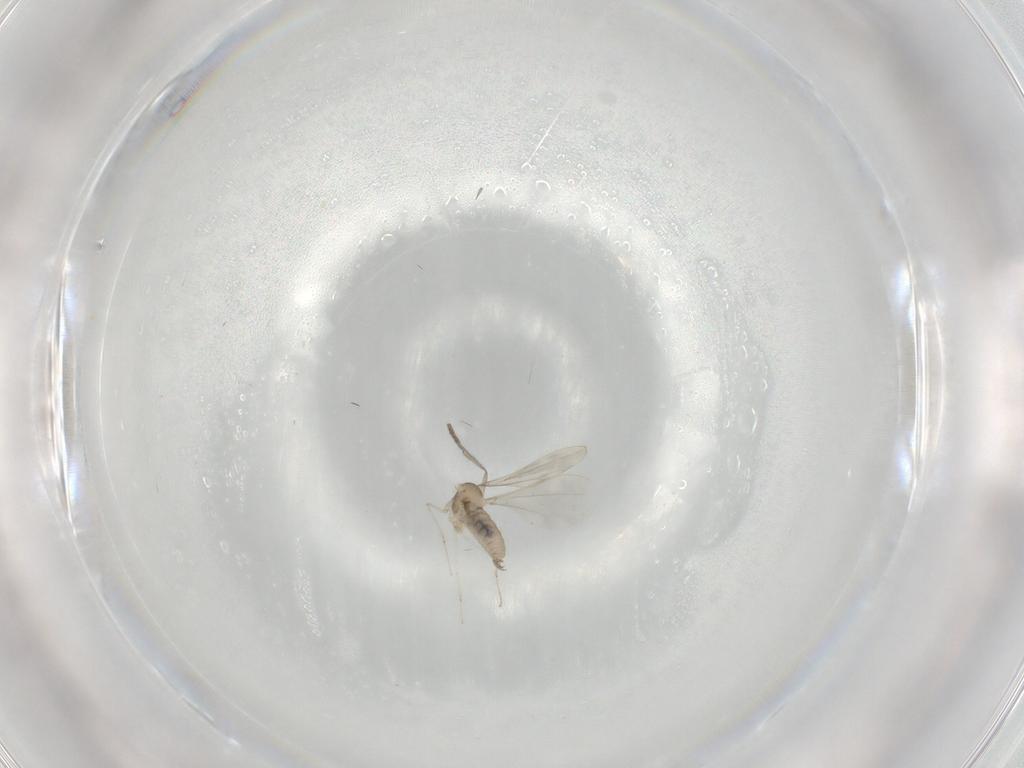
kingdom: Animalia
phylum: Arthropoda
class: Insecta
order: Diptera
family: Psychodidae
